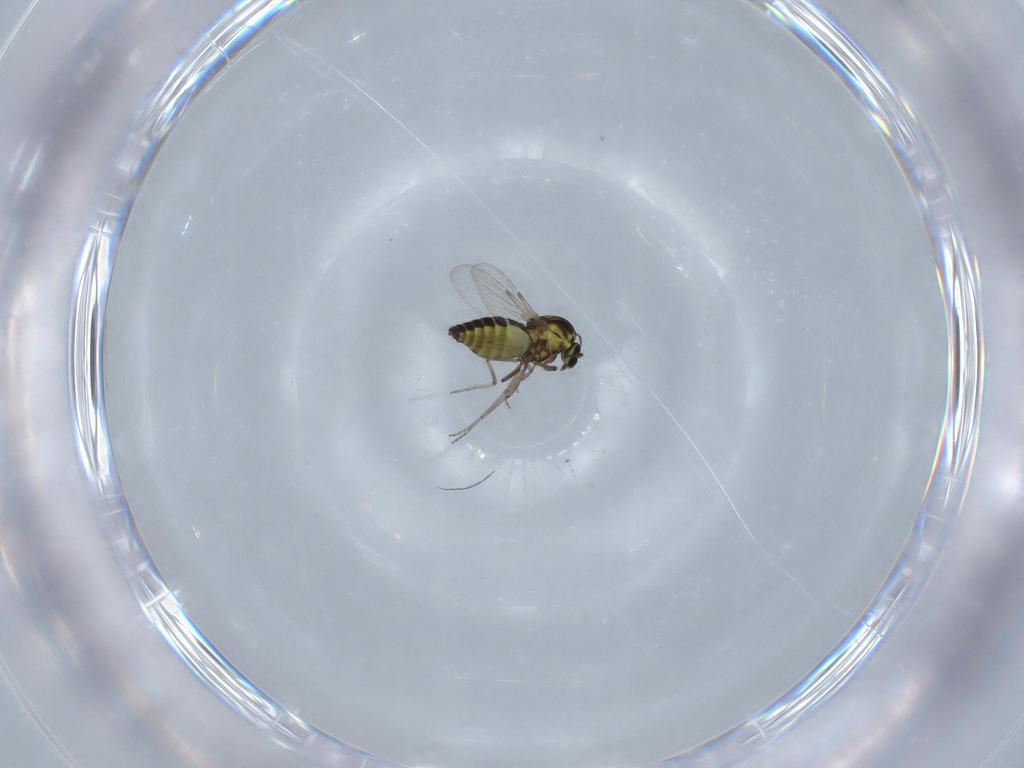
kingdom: Animalia
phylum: Arthropoda
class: Insecta
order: Diptera
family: Ceratopogonidae
